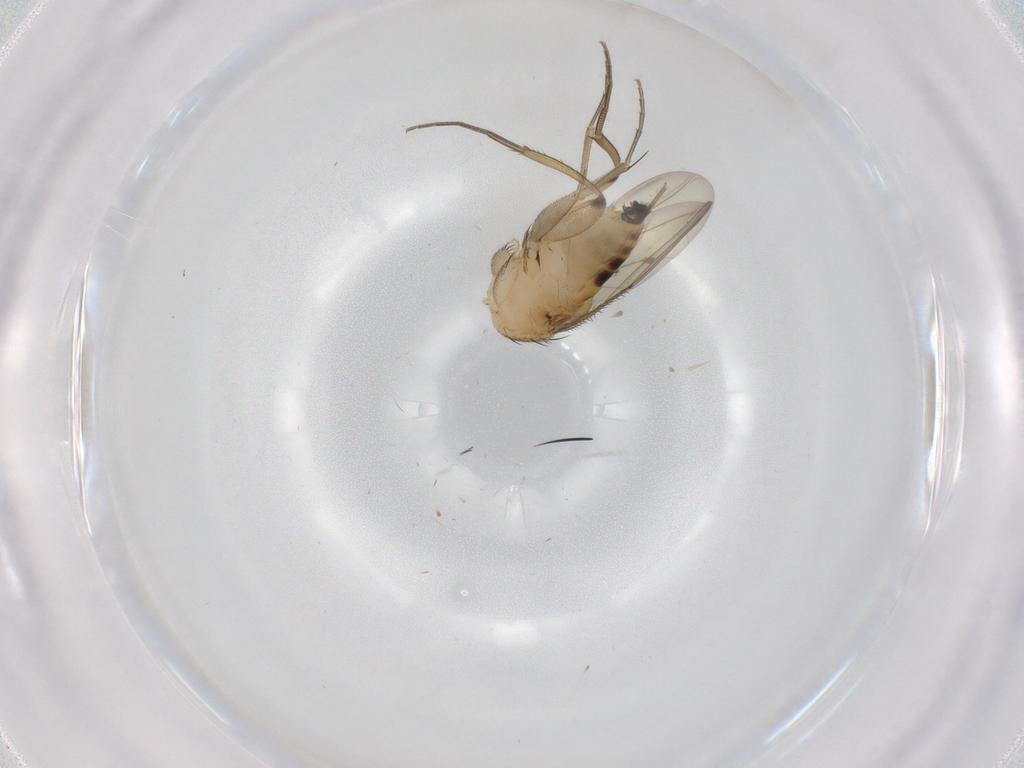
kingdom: Animalia
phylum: Arthropoda
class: Insecta
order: Diptera
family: Phoridae
